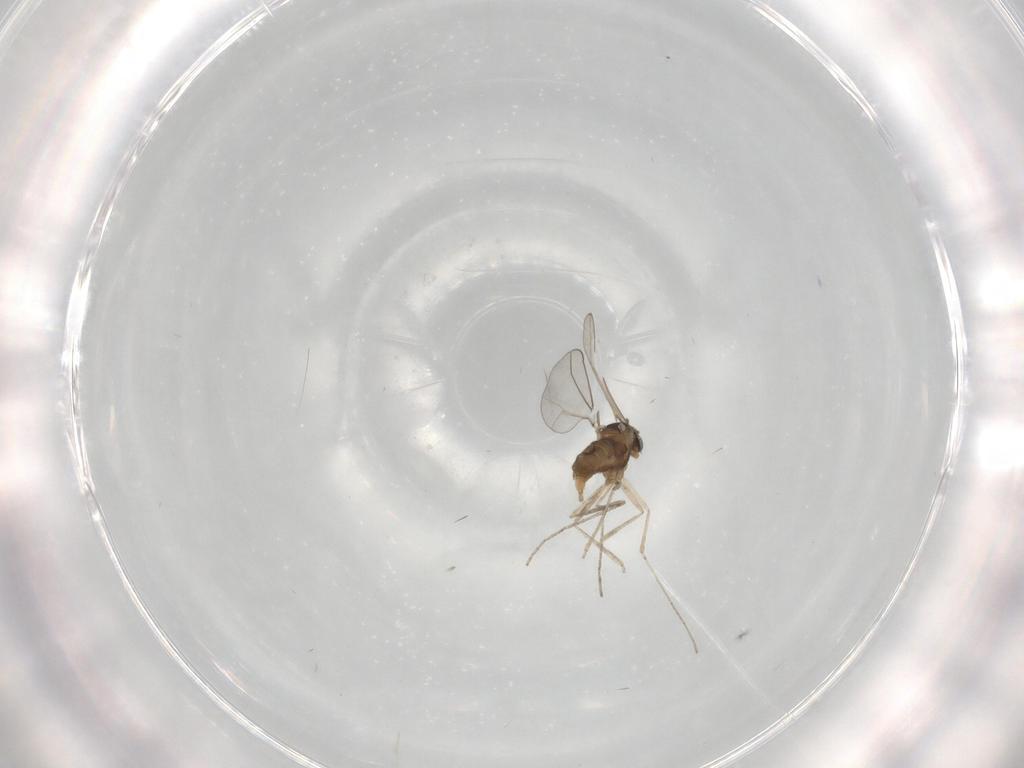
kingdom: Animalia
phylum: Arthropoda
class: Insecta
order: Diptera
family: Cecidomyiidae
